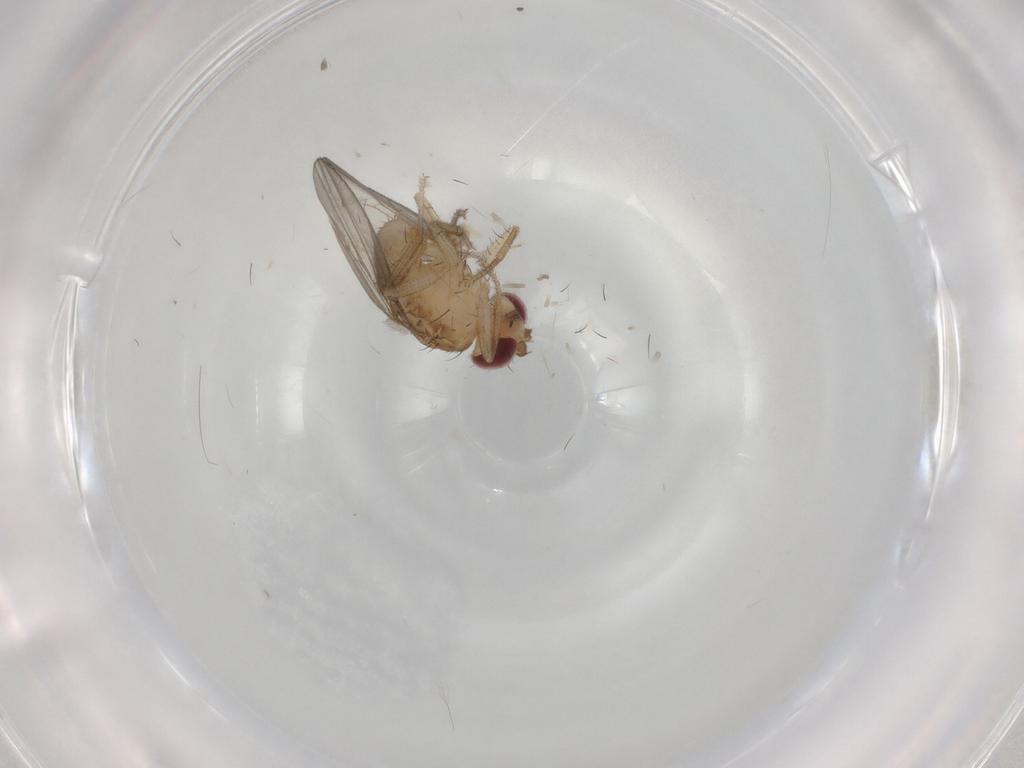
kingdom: Animalia
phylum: Arthropoda
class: Insecta
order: Diptera
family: Drosophilidae
